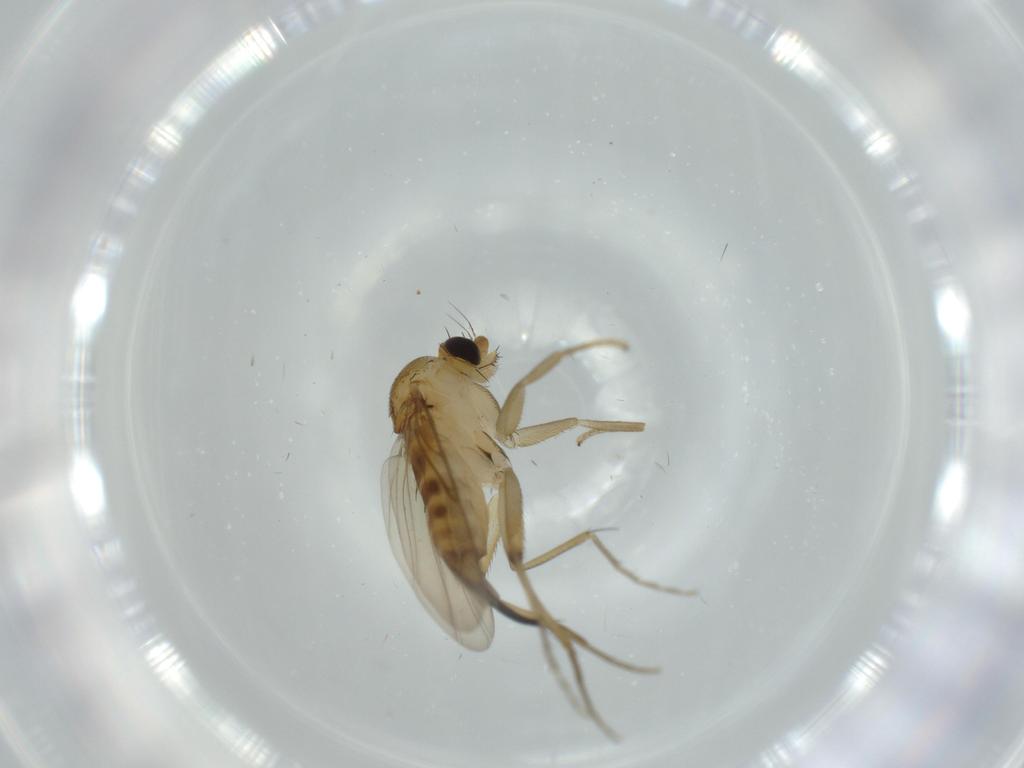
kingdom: Animalia
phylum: Arthropoda
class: Insecta
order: Diptera
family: Phoridae
